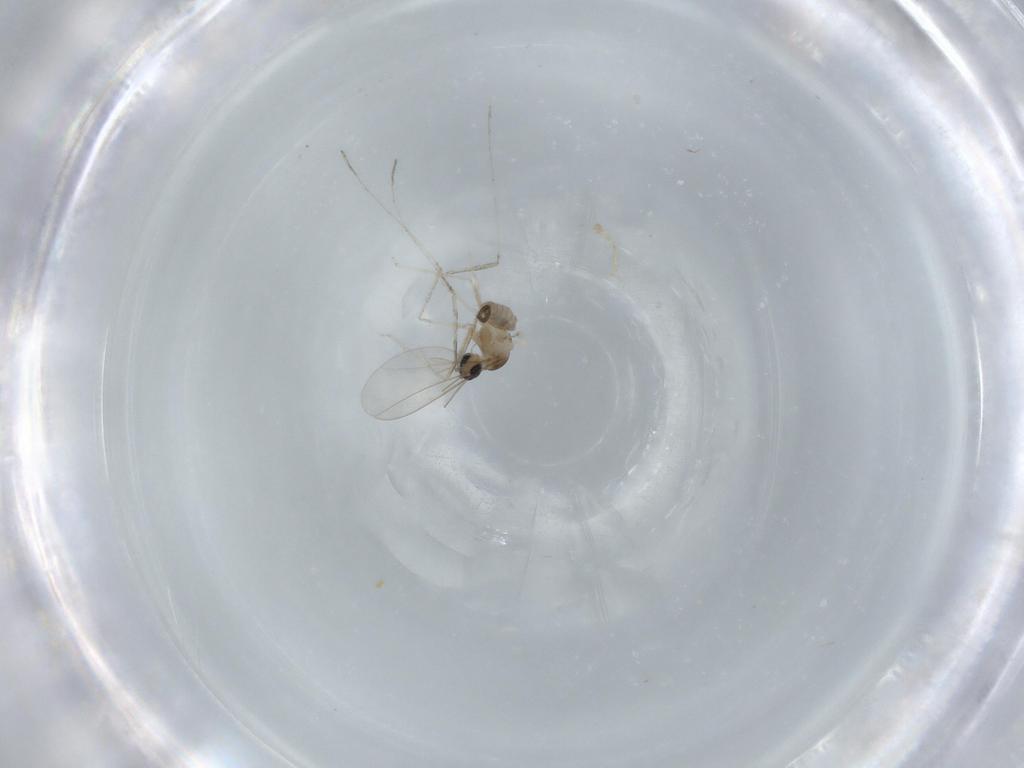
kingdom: Animalia
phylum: Arthropoda
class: Insecta
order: Diptera
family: Cecidomyiidae
